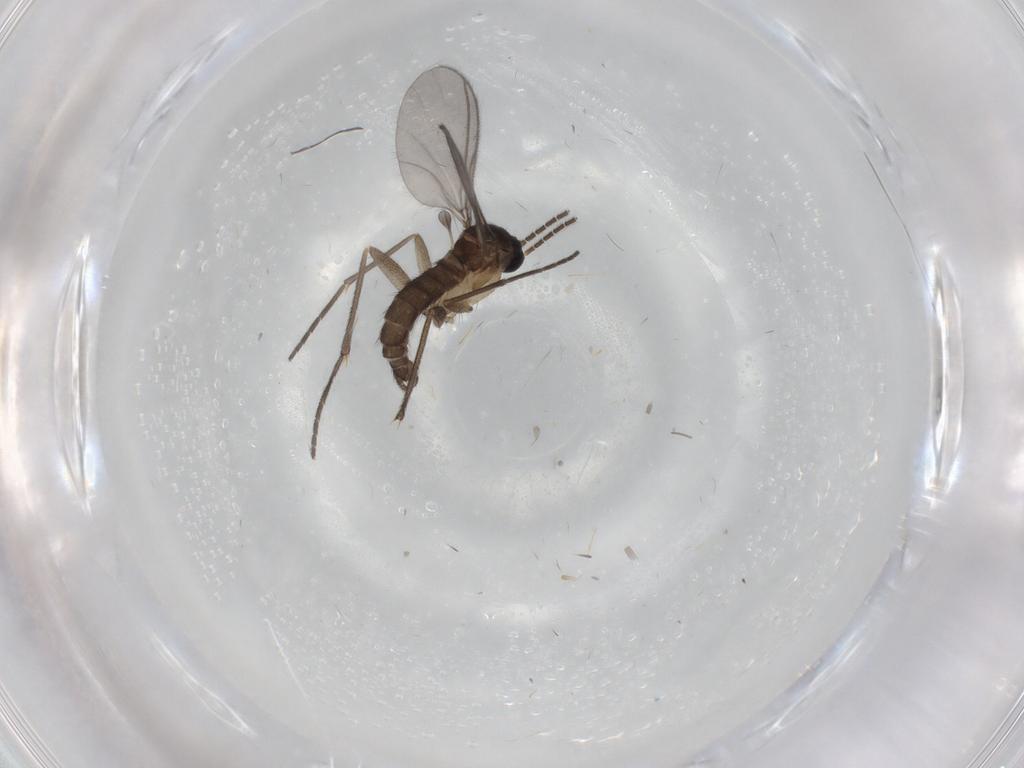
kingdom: Animalia
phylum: Arthropoda
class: Insecta
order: Diptera
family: Sciaridae
